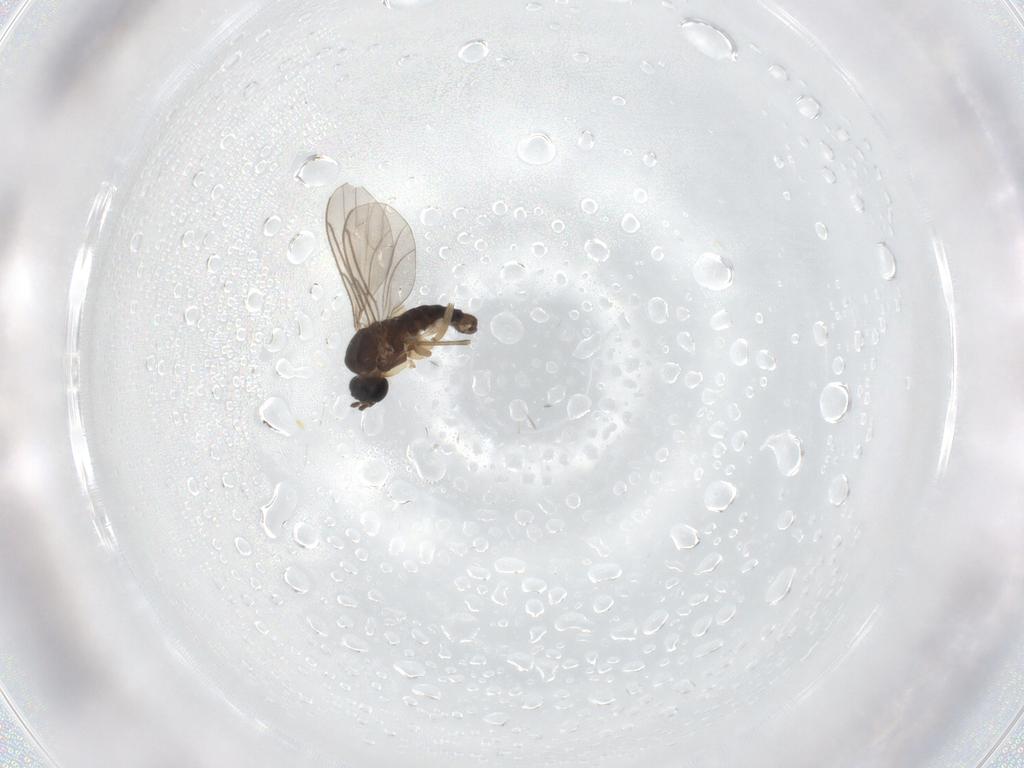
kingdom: Animalia
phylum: Arthropoda
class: Insecta
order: Diptera
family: Sciaridae
